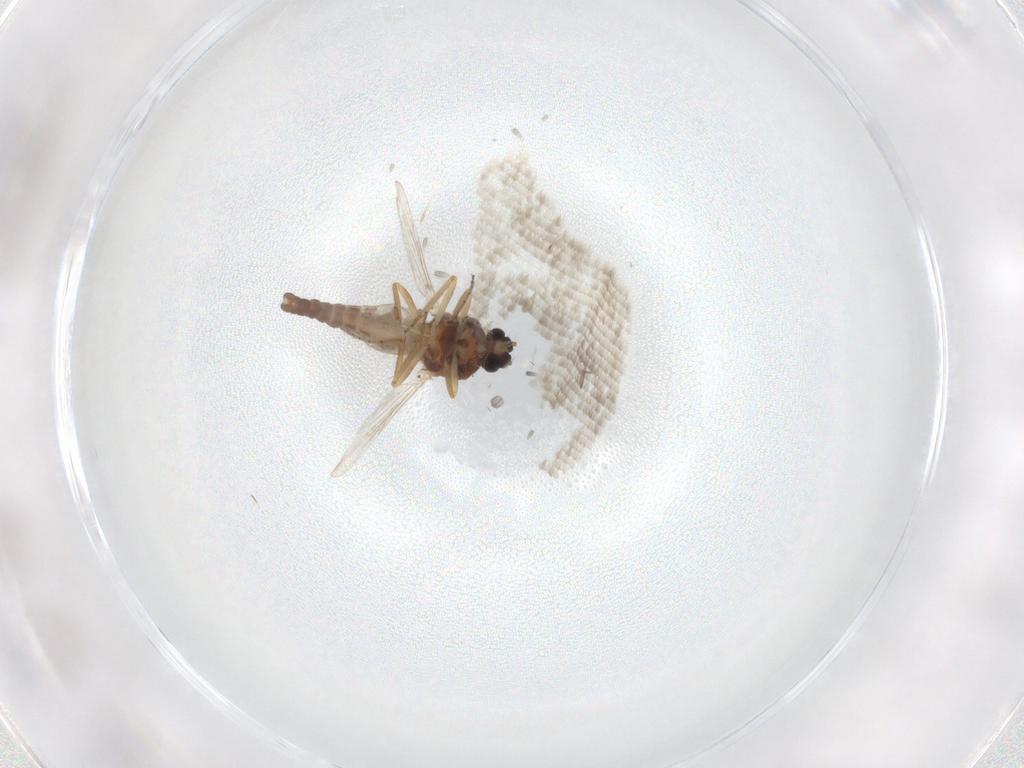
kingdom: Animalia
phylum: Arthropoda
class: Insecta
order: Diptera
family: Ceratopogonidae
